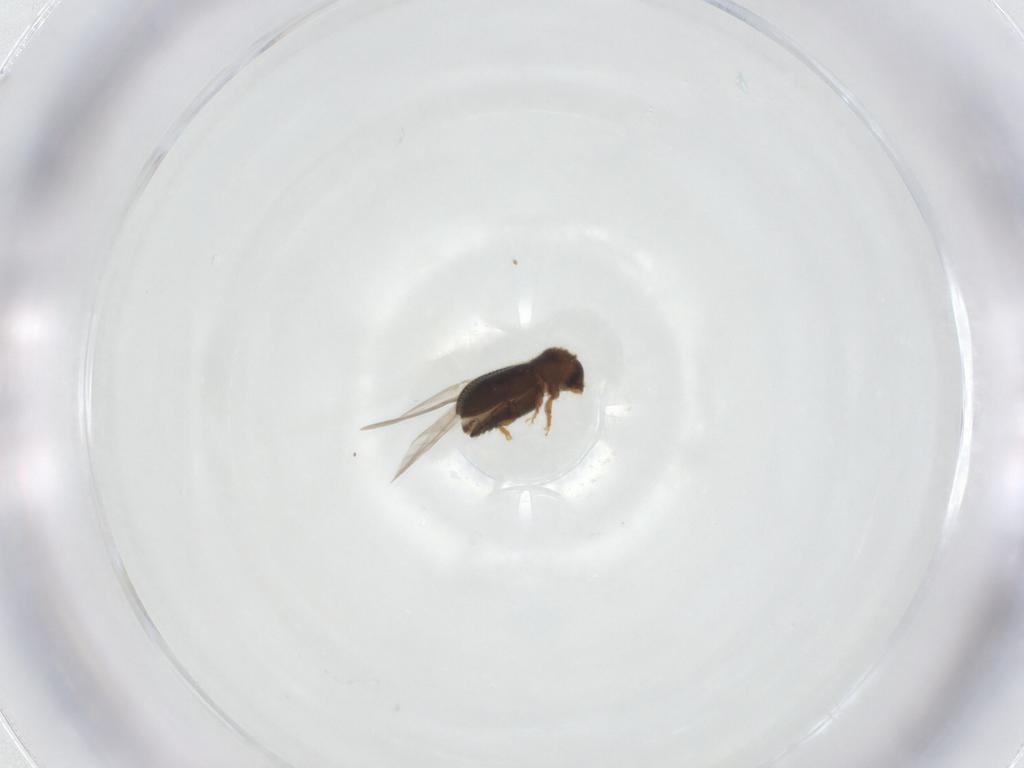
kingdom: Animalia
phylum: Arthropoda
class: Insecta
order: Coleoptera
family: Curculionidae
